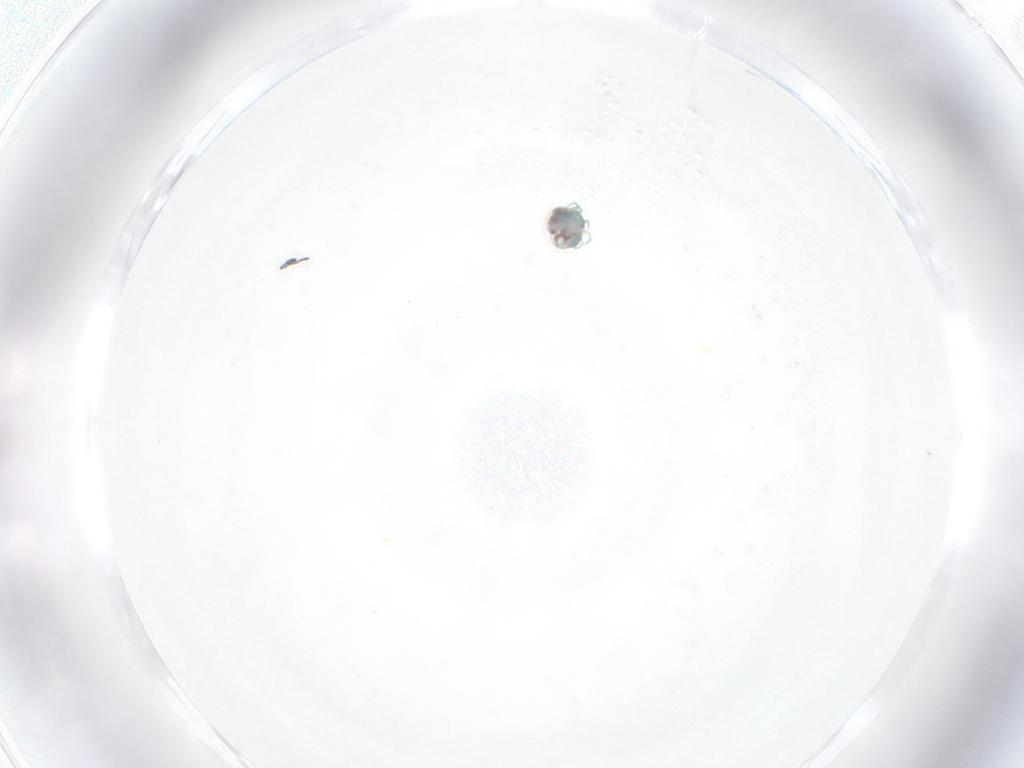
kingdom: Animalia
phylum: Arthropoda
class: Arachnida
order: Trombidiformes
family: Arrenuridae
